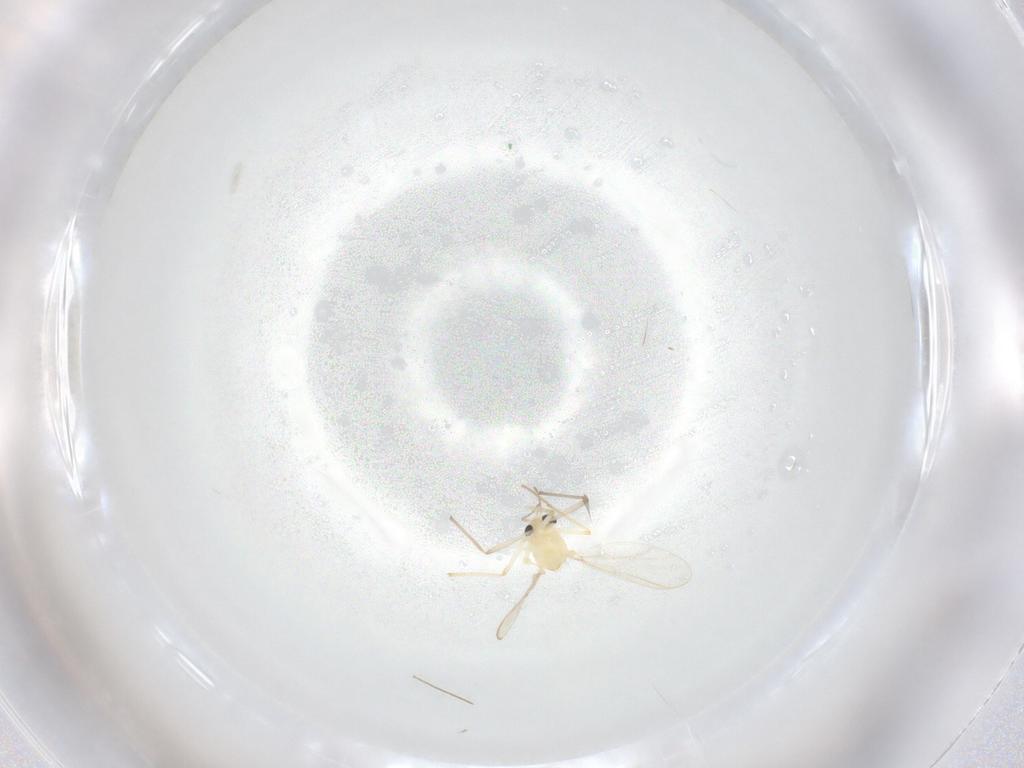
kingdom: Animalia
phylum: Arthropoda
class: Insecta
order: Diptera
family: Chironomidae
